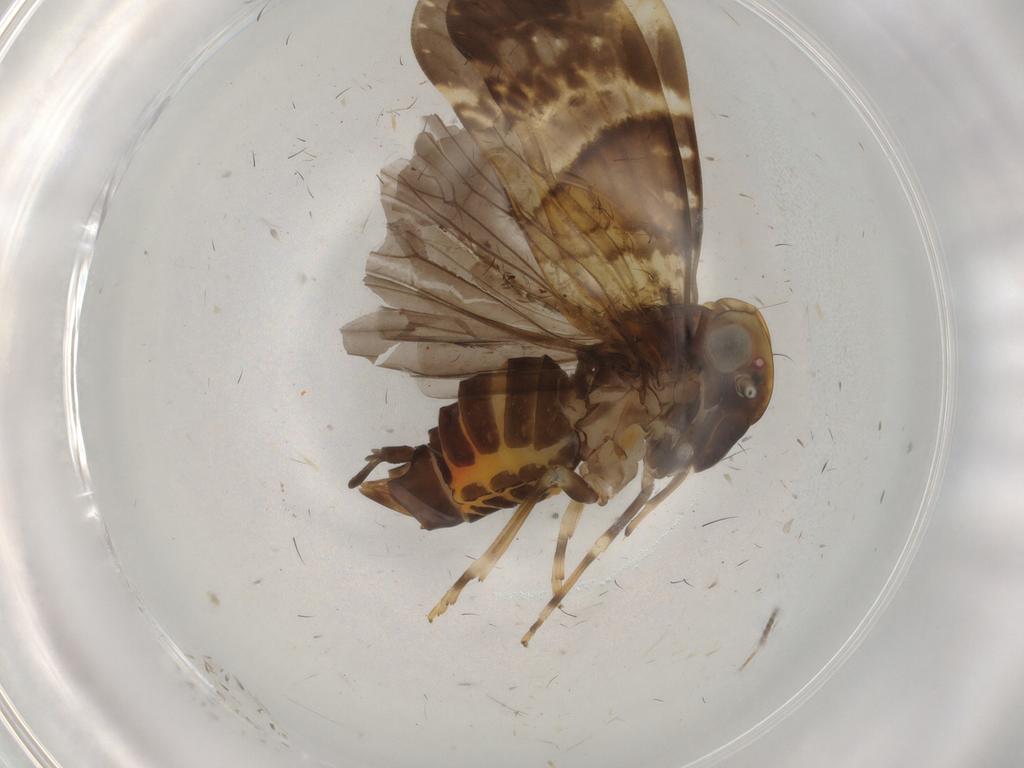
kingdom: Animalia
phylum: Arthropoda
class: Insecta
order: Hemiptera
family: Cixiidae
